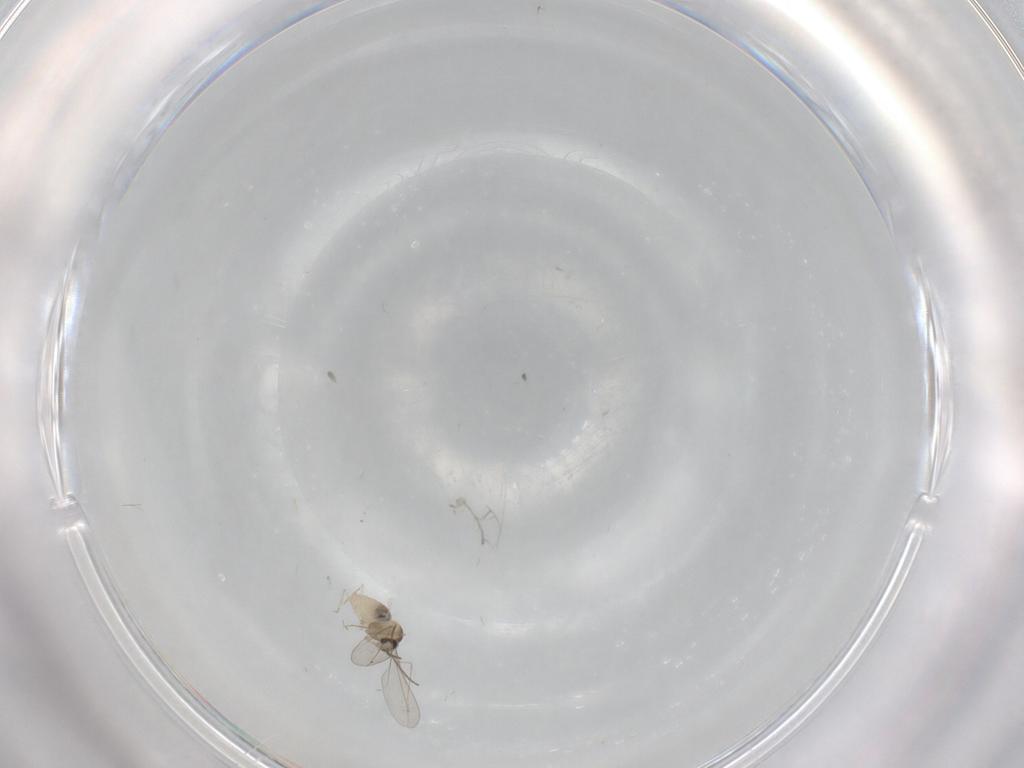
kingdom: Animalia
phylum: Arthropoda
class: Insecta
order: Diptera
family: Cecidomyiidae
